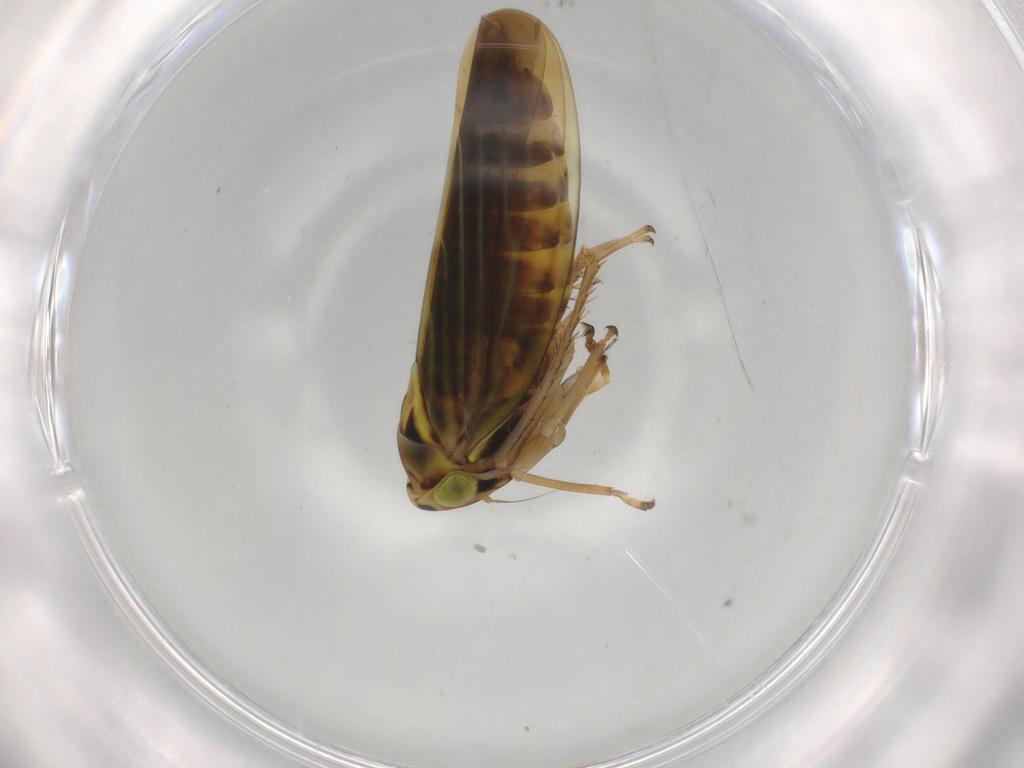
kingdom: Animalia
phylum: Arthropoda
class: Insecta
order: Hemiptera
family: Cicadellidae
